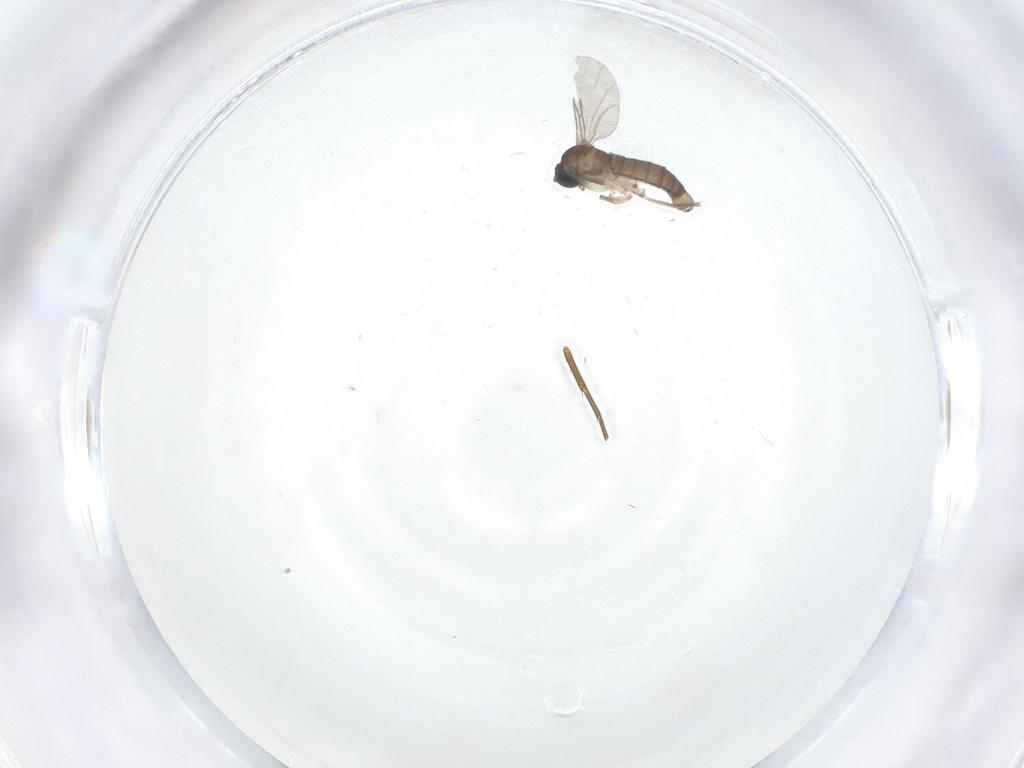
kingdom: Animalia
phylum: Arthropoda
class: Insecta
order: Diptera
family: Sciaridae
